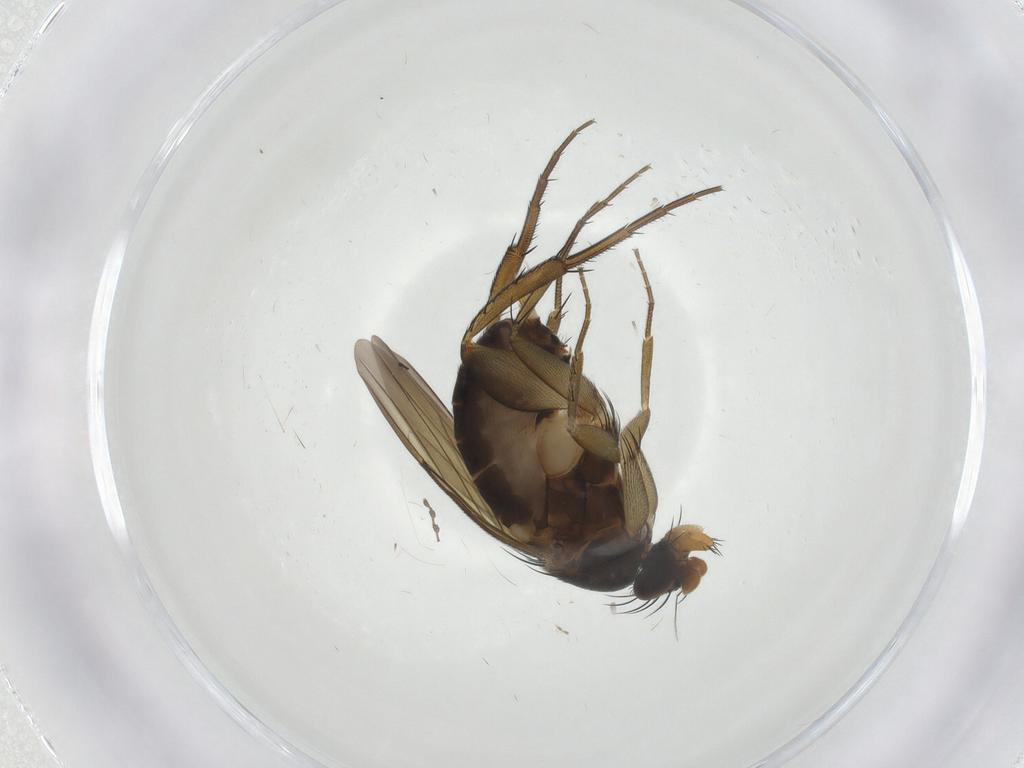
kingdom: Animalia
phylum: Arthropoda
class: Insecta
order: Diptera
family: Phoridae
